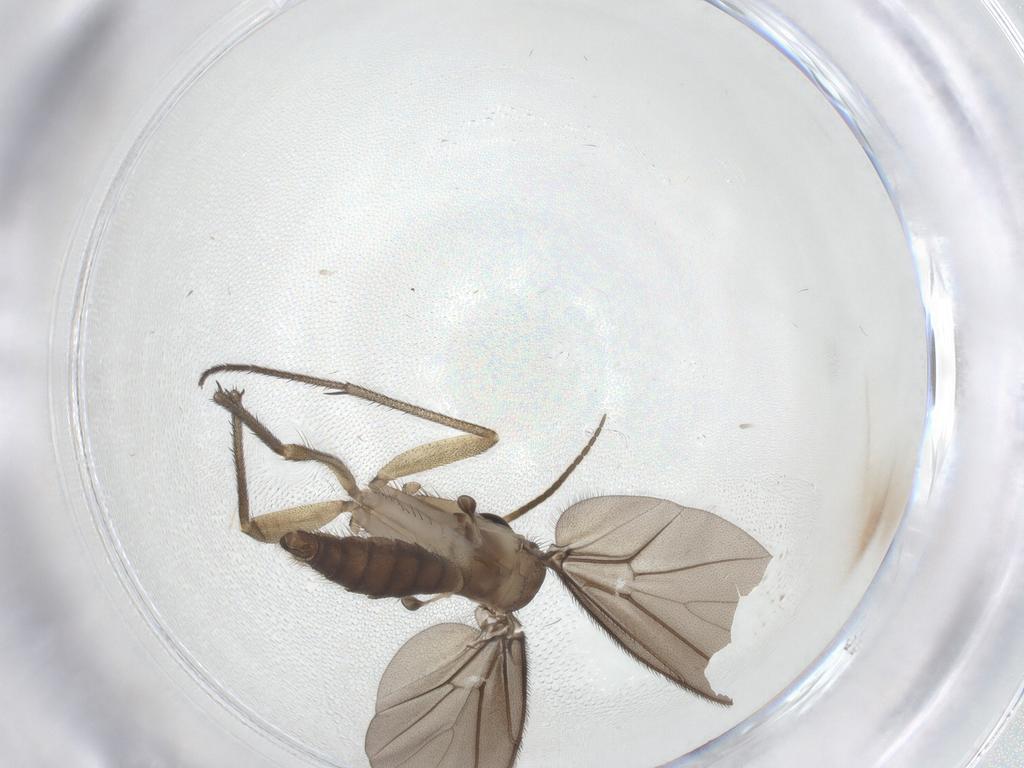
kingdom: Animalia
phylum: Arthropoda
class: Insecta
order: Diptera
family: Diadocidiidae
